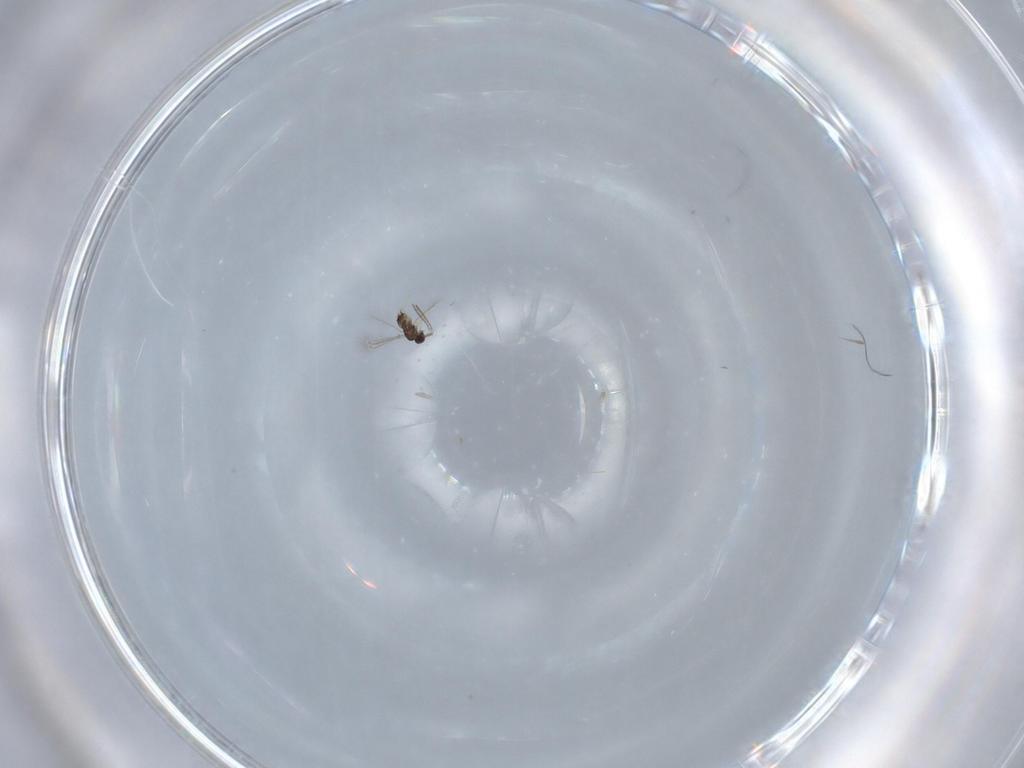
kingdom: Animalia
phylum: Arthropoda
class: Insecta
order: Hymenoptera
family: Mymaridae
